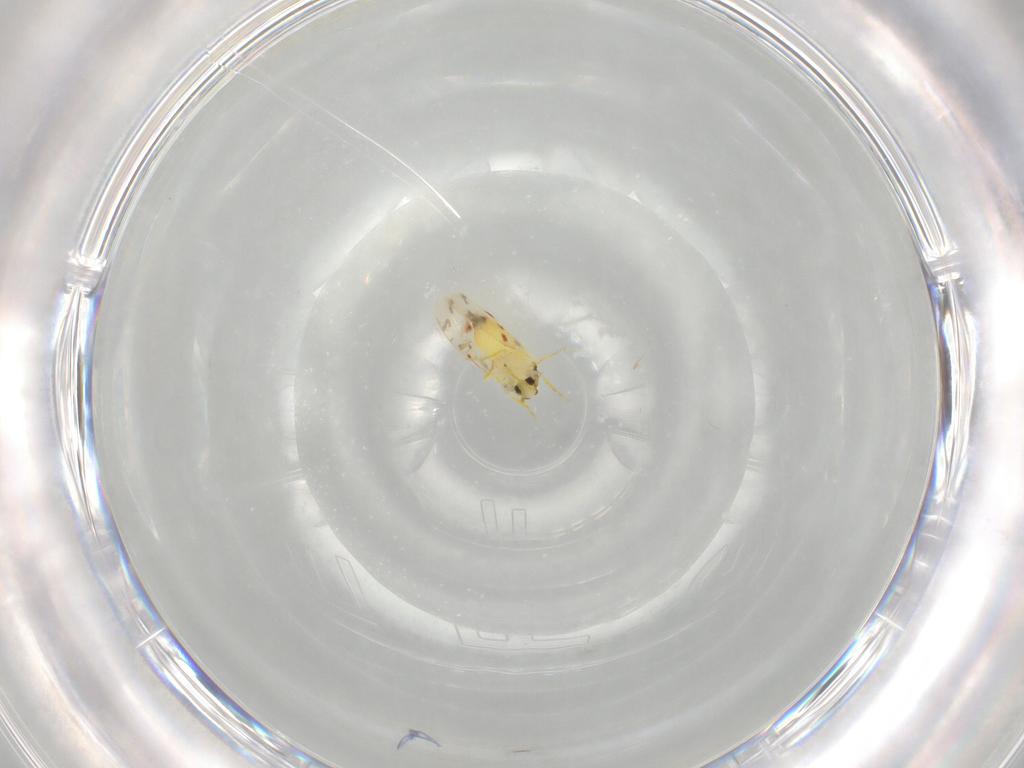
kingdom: Animalia
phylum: Arthropoda
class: Insecta
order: Hemiptera
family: Aleyrodidae
